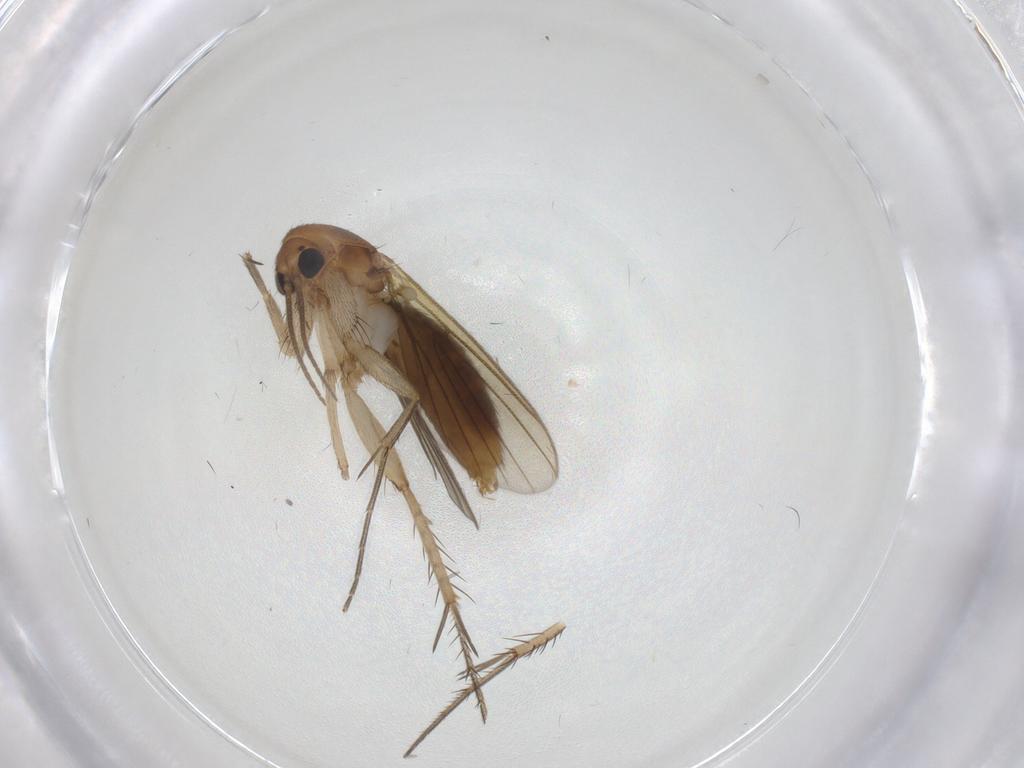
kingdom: Animalia
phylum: Arthropoda
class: Insecta
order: Diptera
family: Mycetophilidae
